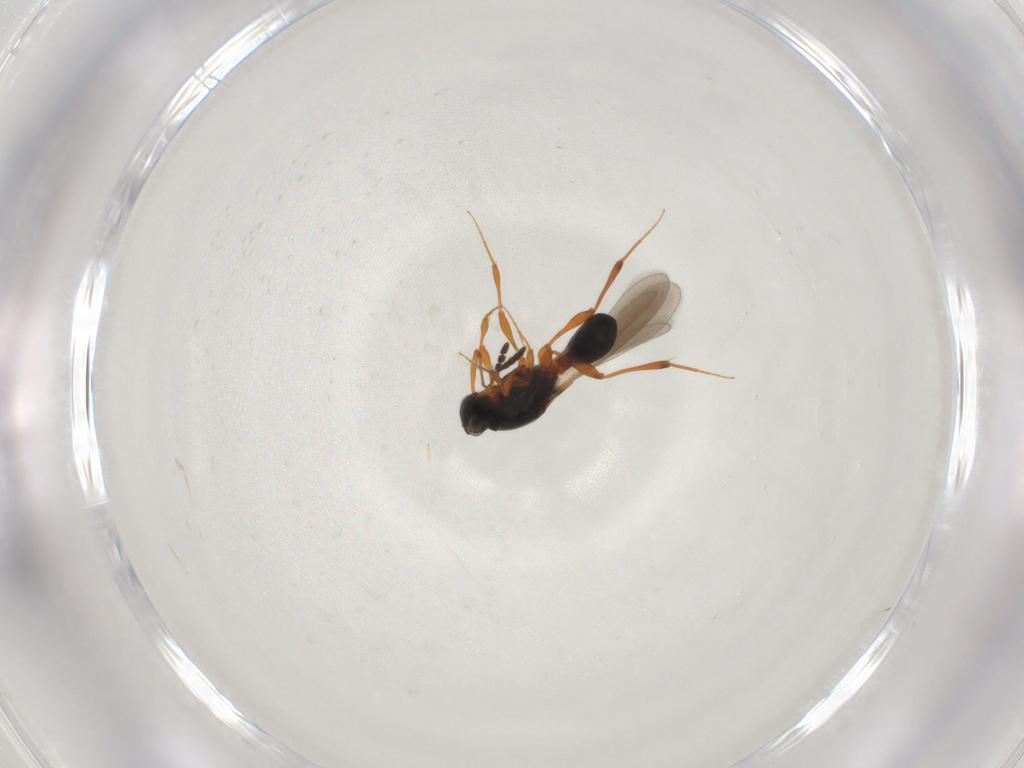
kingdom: Animalia
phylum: Arthropoda
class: Insecta
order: Hymenoptera
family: Platygastridae
